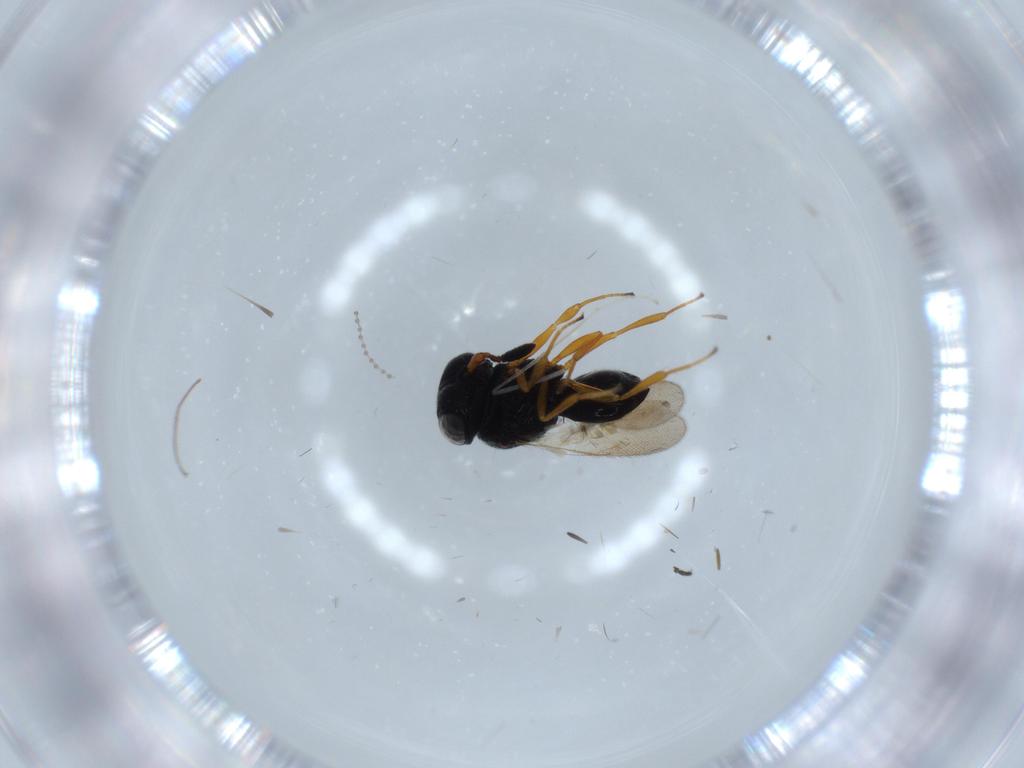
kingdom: Animalia
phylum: Arthropoda
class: Insecta
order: Hymenoptera
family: Scelionidae
